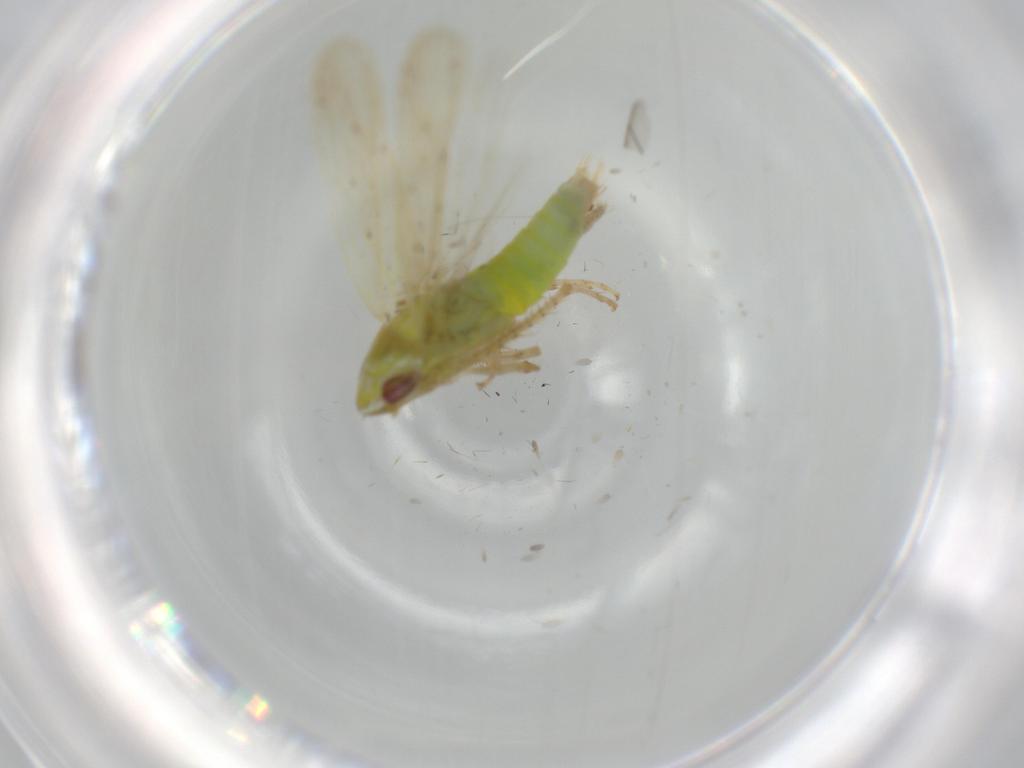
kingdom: Animalia
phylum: Arthropoda
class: Insecta
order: Hemiptera
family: Cicadellidae
